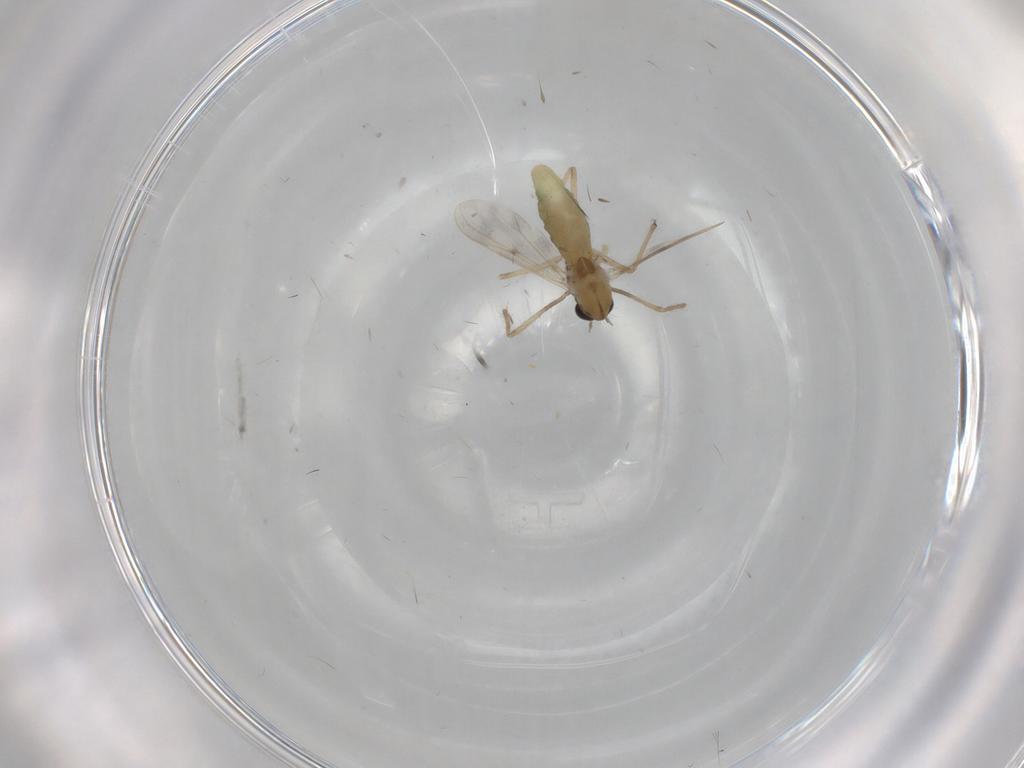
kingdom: Animalia
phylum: Arthropoda
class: Insecta
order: Diptera
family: Chironomidae
